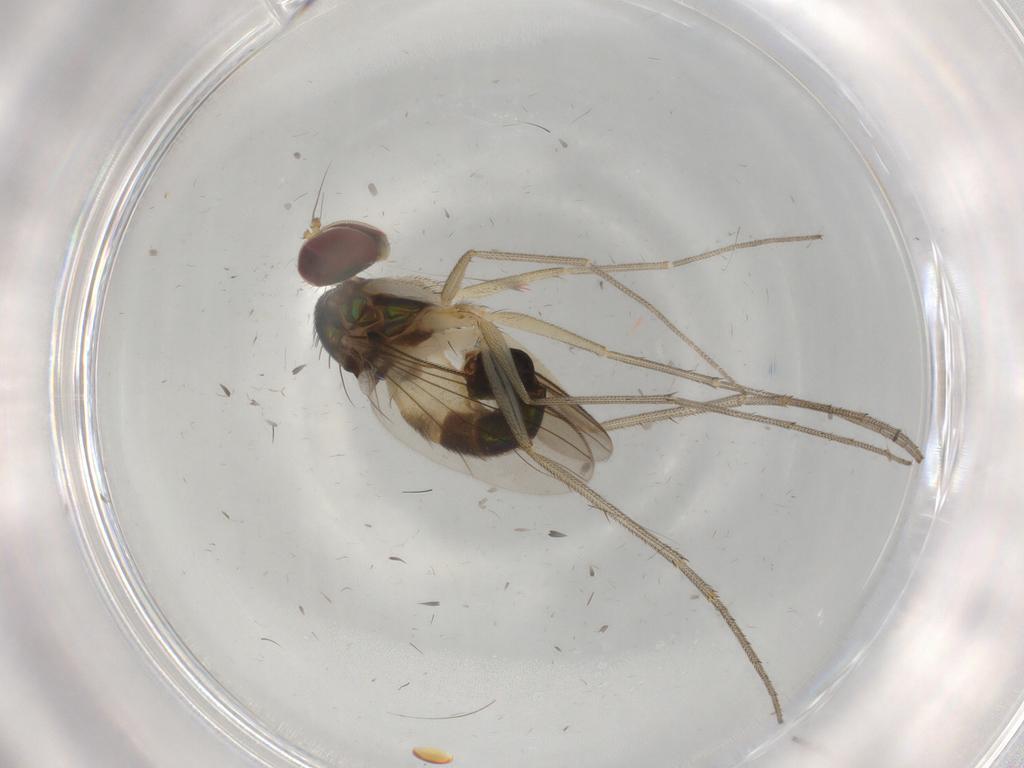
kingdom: Animalia
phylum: Arthropoda
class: Insecta
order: Diptera
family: Dolichopodidae
